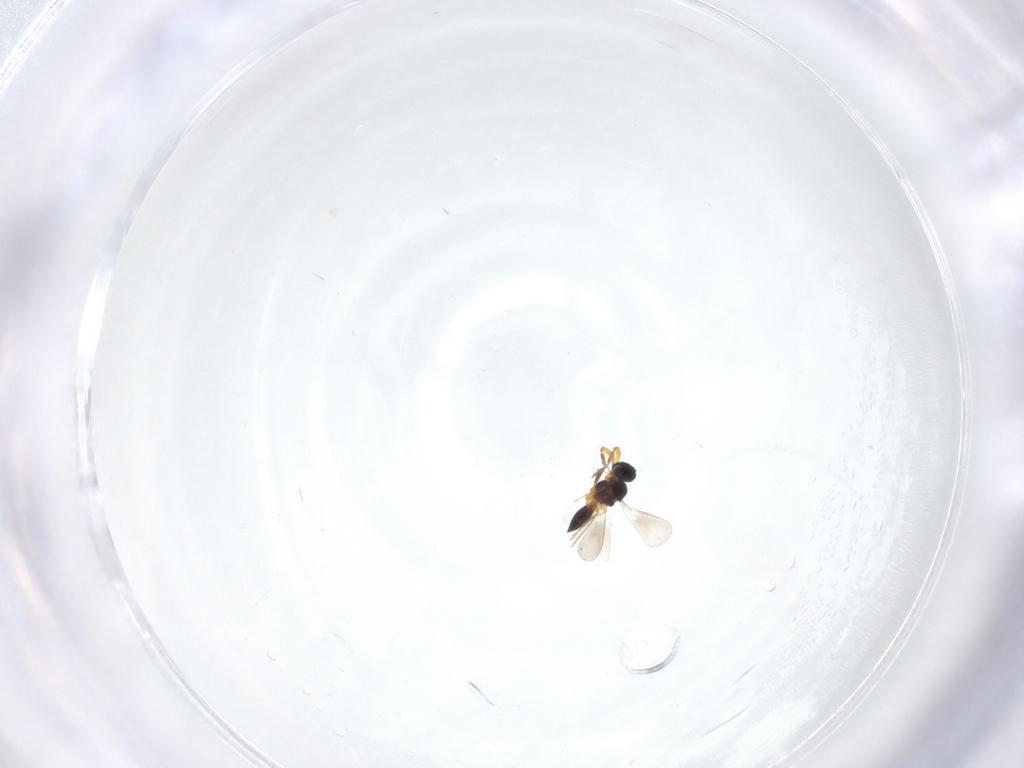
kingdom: Animalia
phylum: Arthropoda
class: Insecta
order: Hymenoptera
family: Platygastridae
